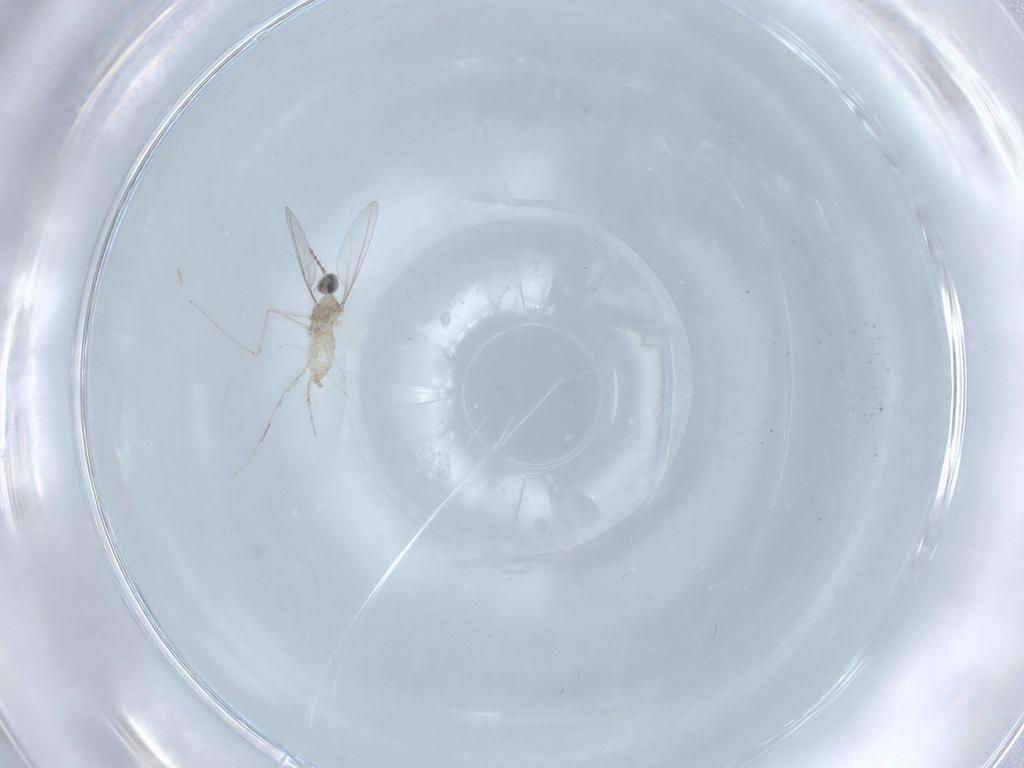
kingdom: Animalia
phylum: Arthropoda
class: Insecta
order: Diptera
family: Cecidomyiidae
